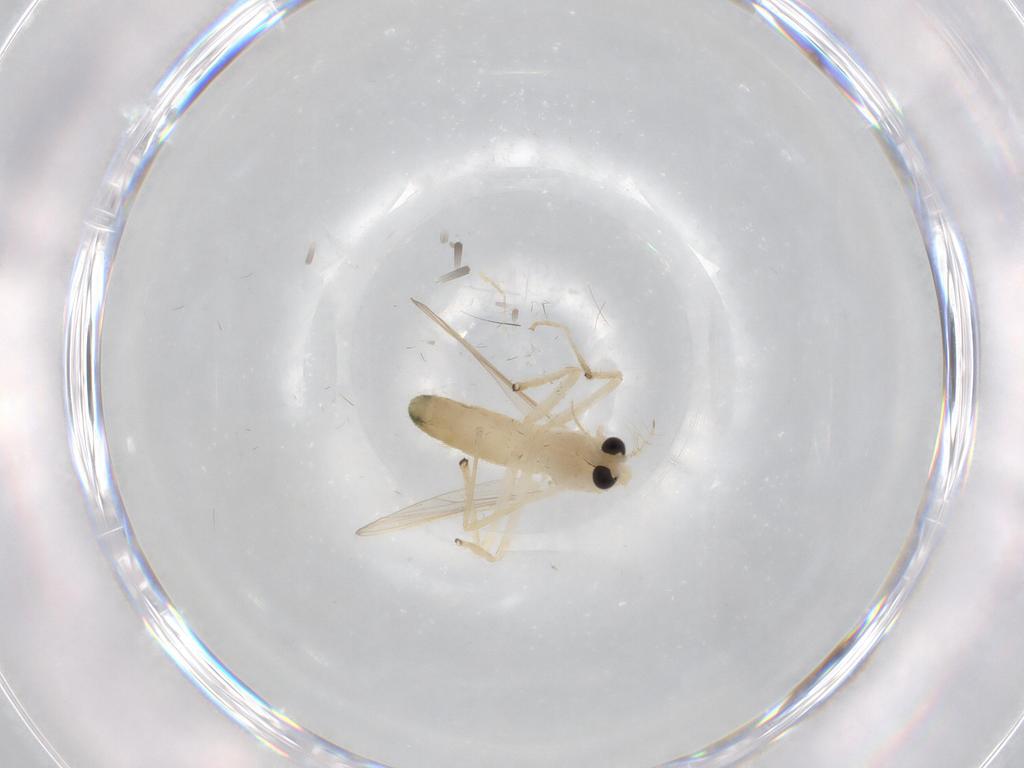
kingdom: Animalia
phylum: Arthropoda
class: Insecta
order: Diptera
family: Chironomidae
